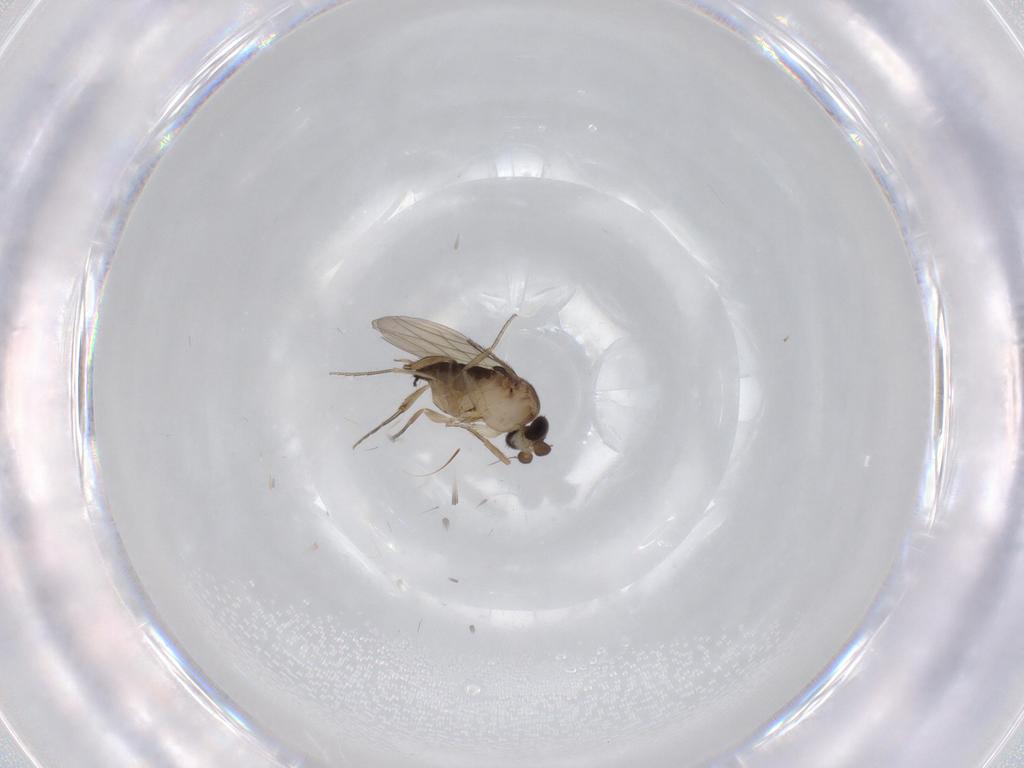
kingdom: Animalia
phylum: Arthropoda
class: Insecta
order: Diptera
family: Phoridae
